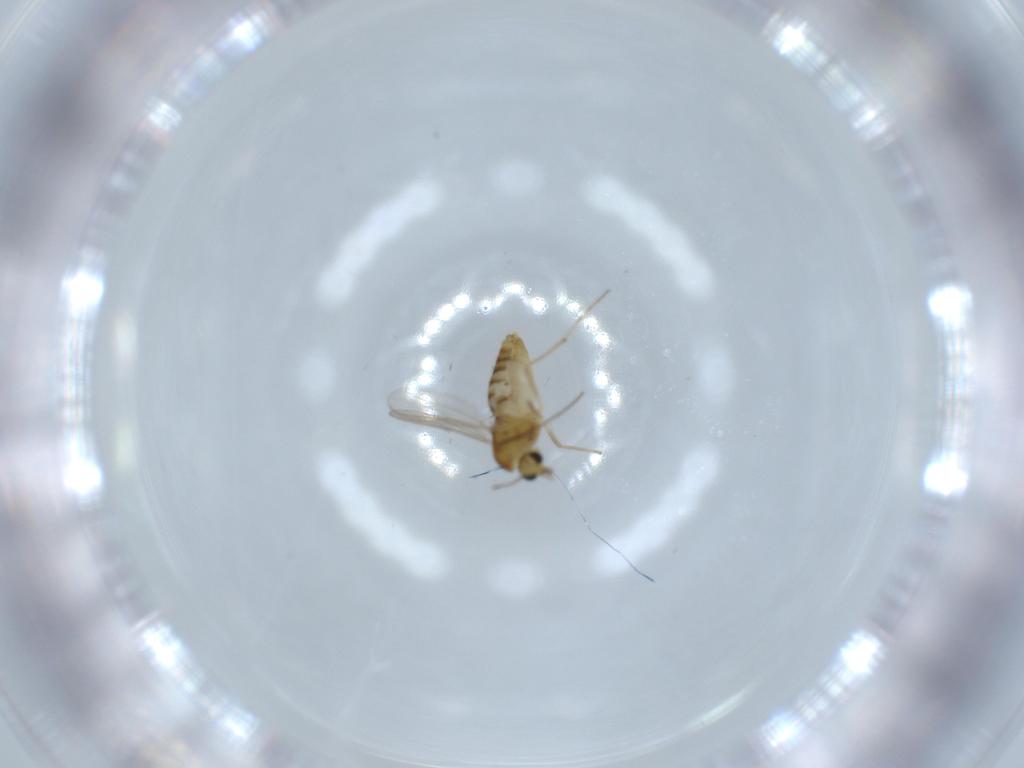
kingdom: Animalia
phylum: Arthropoda
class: Insecta
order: Diptera
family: Chironomidae
